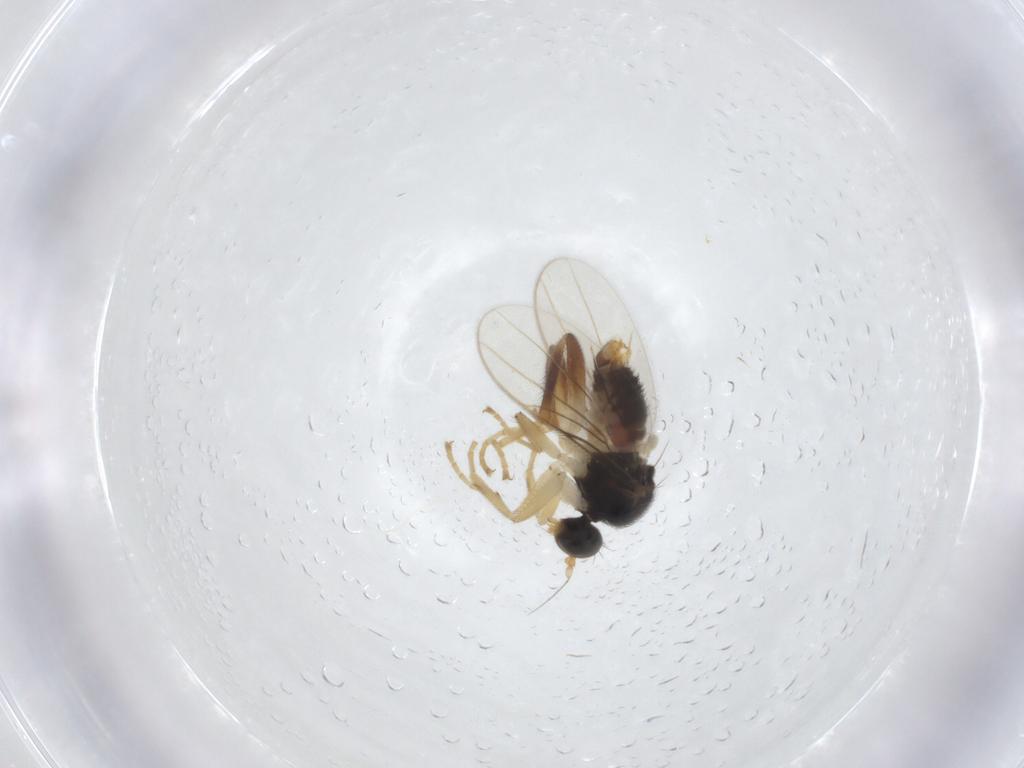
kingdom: Animalia
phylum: Arthropoda
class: Insecta
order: Diptera
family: Hybotidae
